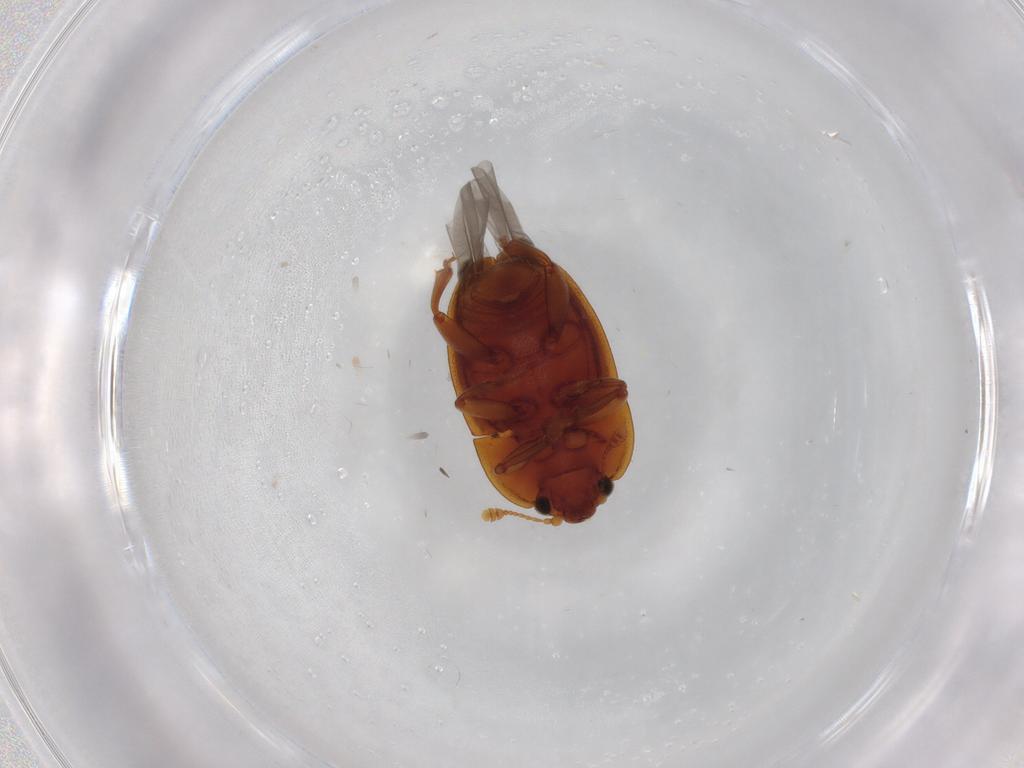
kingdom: Animalia
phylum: Arthropoda
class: Insecta
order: Coleoptera
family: Nitidulidae
